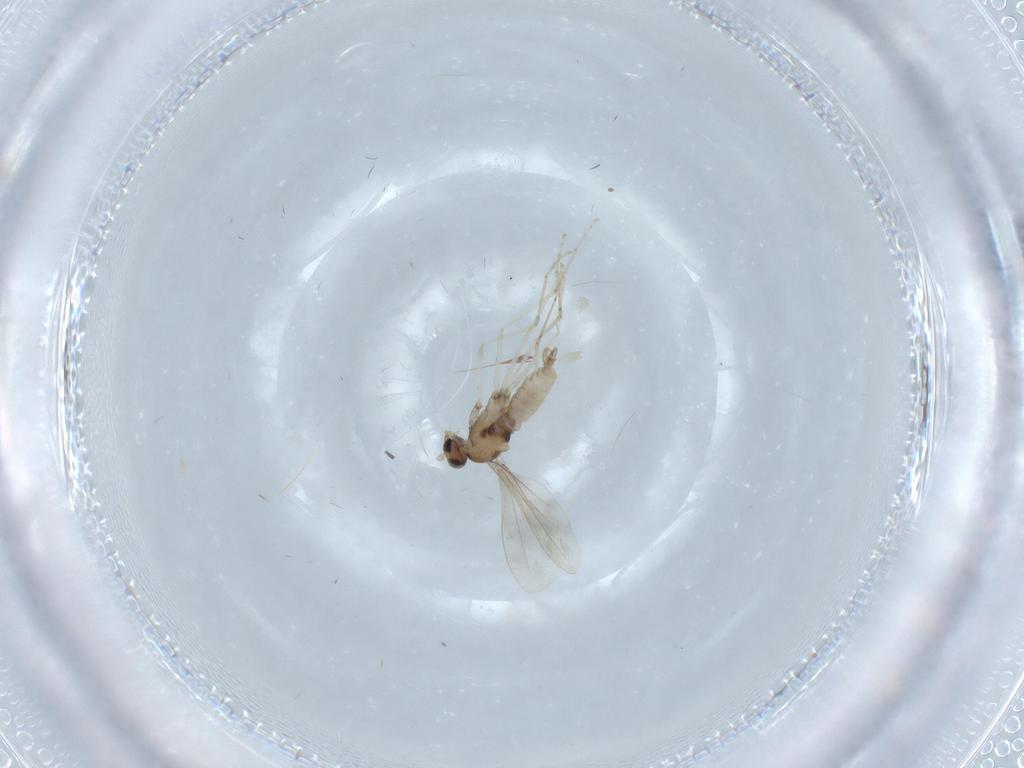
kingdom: Animalia
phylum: Arthropoda
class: Insecta
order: Diptera
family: Cecidomyiidae
